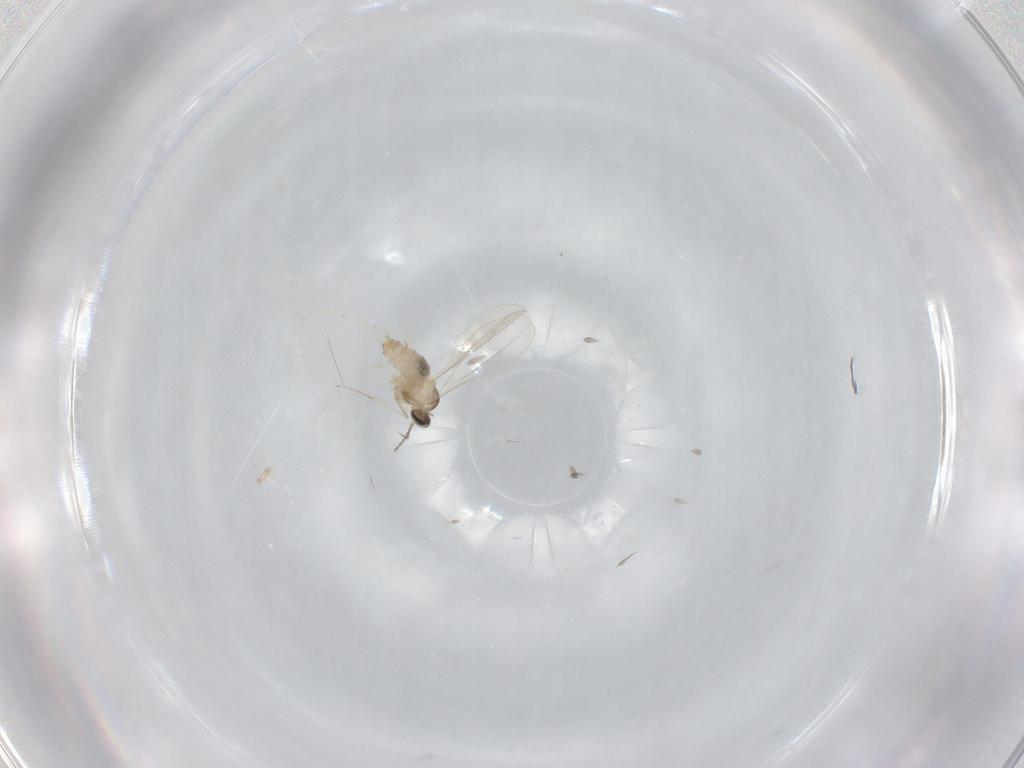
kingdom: Animalia
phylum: Arthropoda
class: Insecta
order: Diptera
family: Cecidomyiidae
